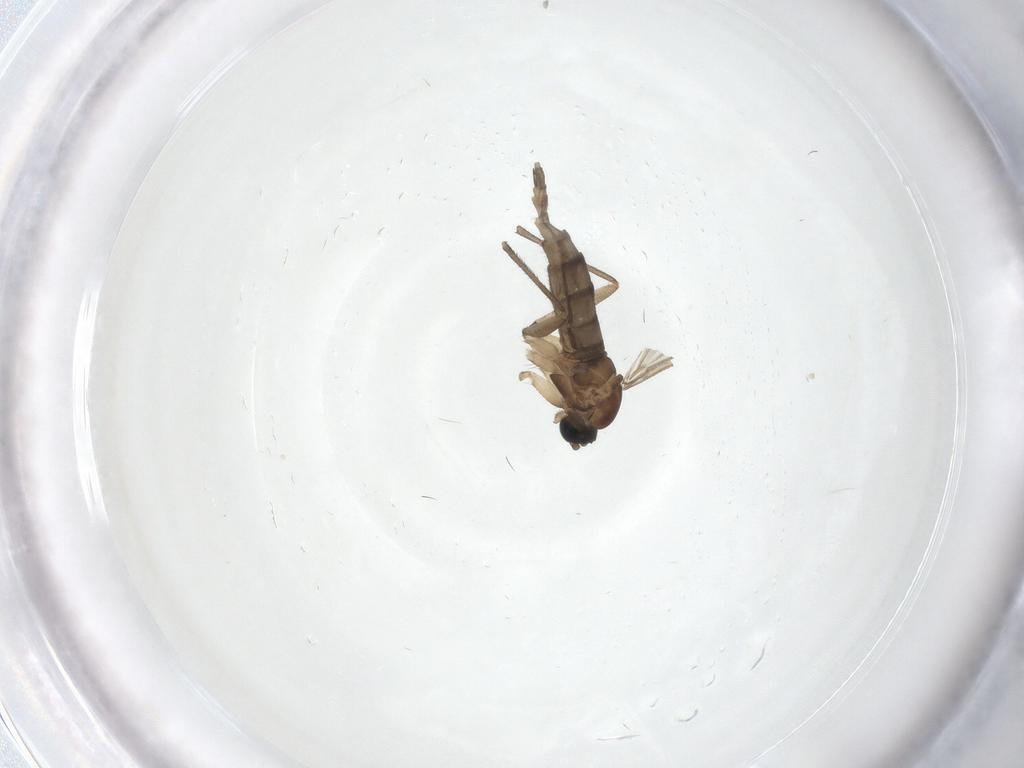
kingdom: Animalia
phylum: Arthropoda
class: Insecta
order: Diptera
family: Sciaridae
